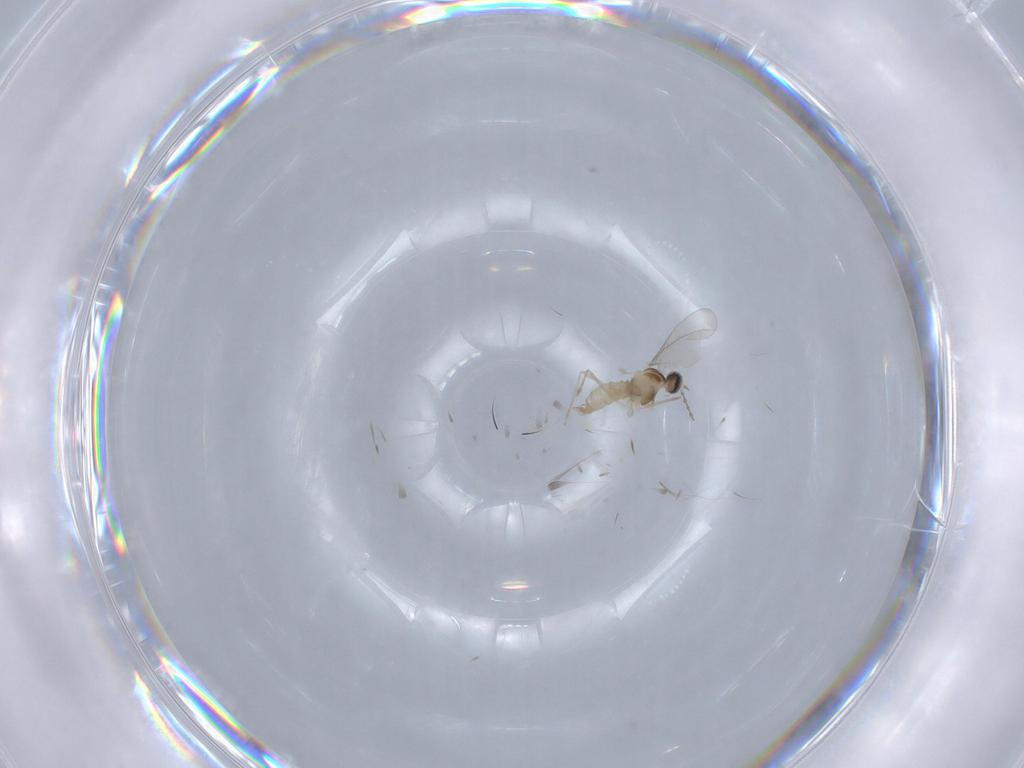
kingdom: Animalia
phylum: Arthropoda
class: Insecta
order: Diptera
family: Cecidomyiidae
